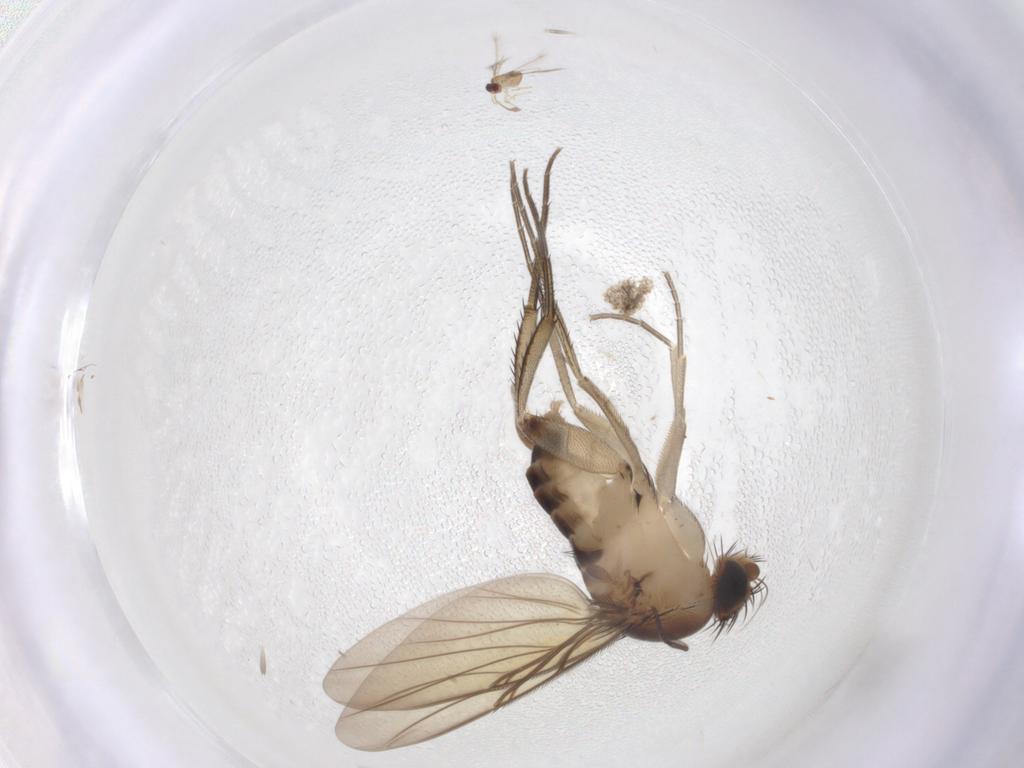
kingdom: Animalia
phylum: Arthropoda
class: Insecta
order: Diptera
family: Phoridae
